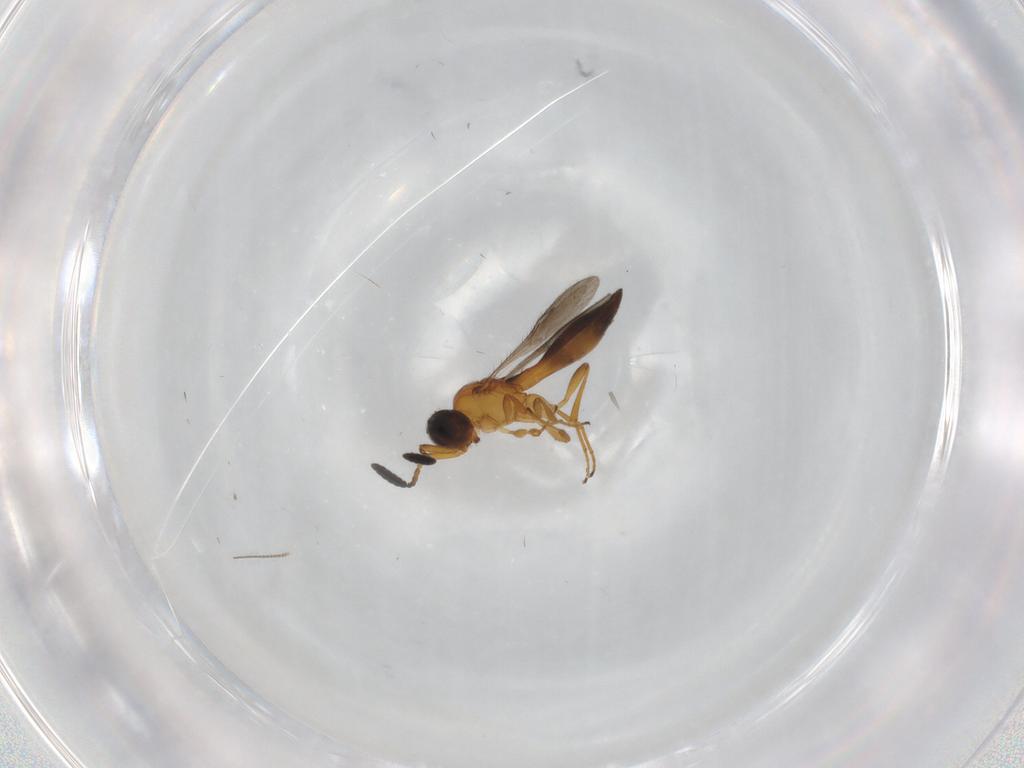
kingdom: Animalia
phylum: Arthropoda
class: Insecta
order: Hymenoptera
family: Scelionidae
